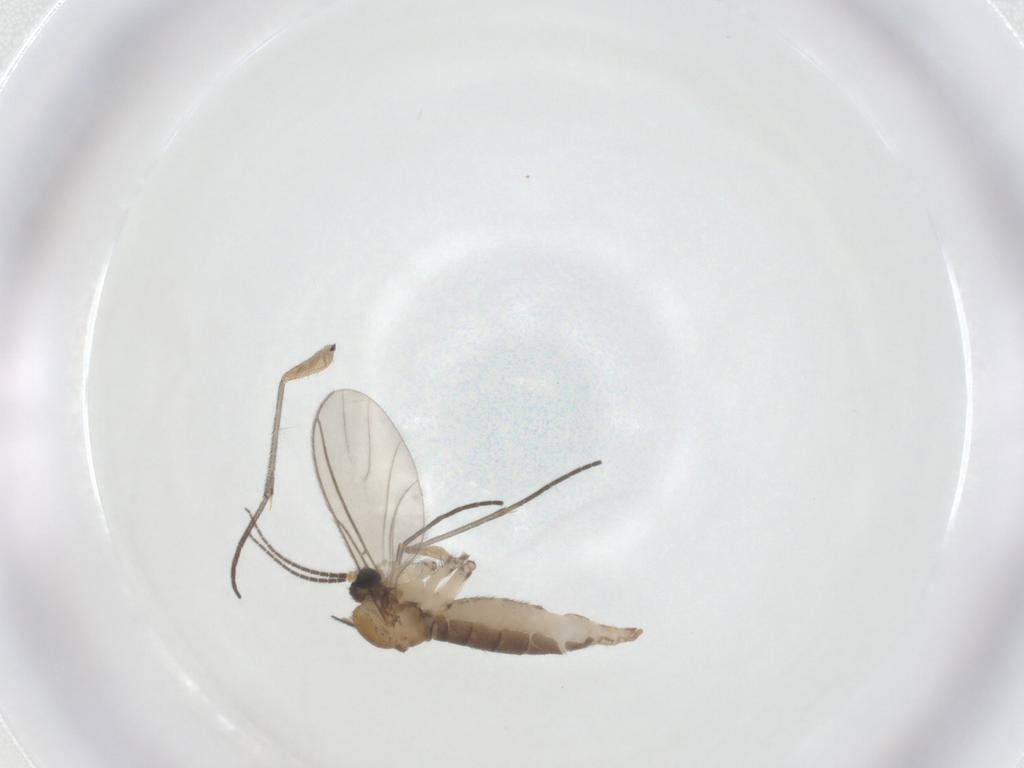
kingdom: Animalia
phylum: Arthropoda
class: Insecta
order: Diptera
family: Sciaridae
